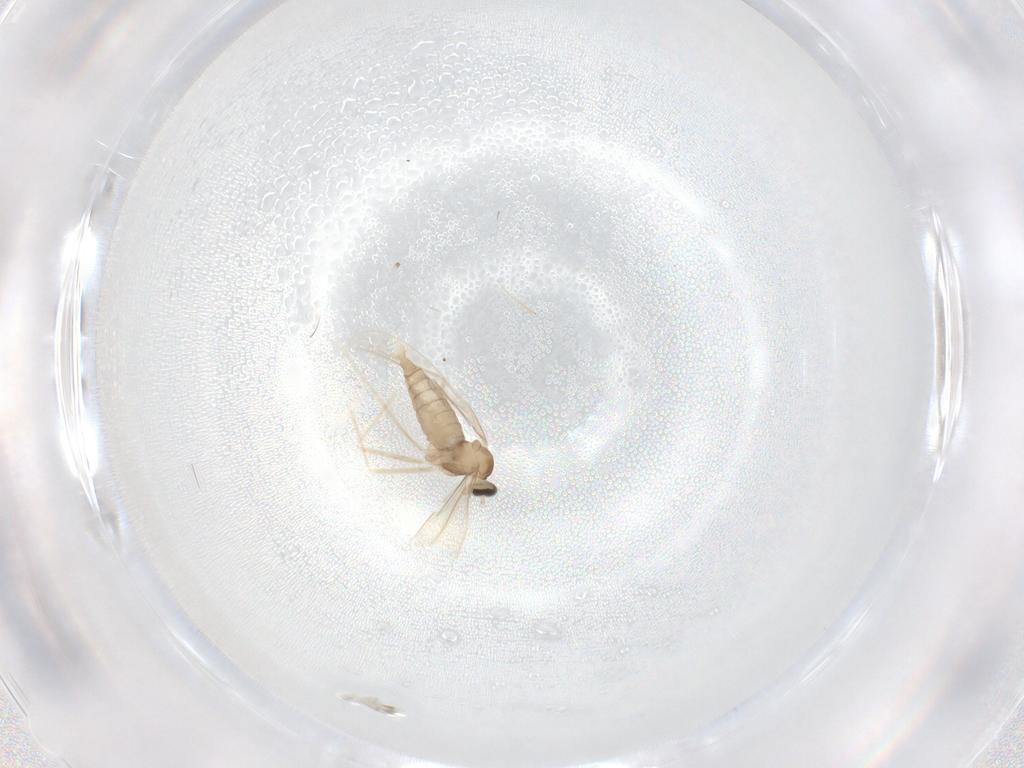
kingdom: Animalia
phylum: Arthropoda
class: Insecta
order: Diptera
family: Cecidomyiidae
